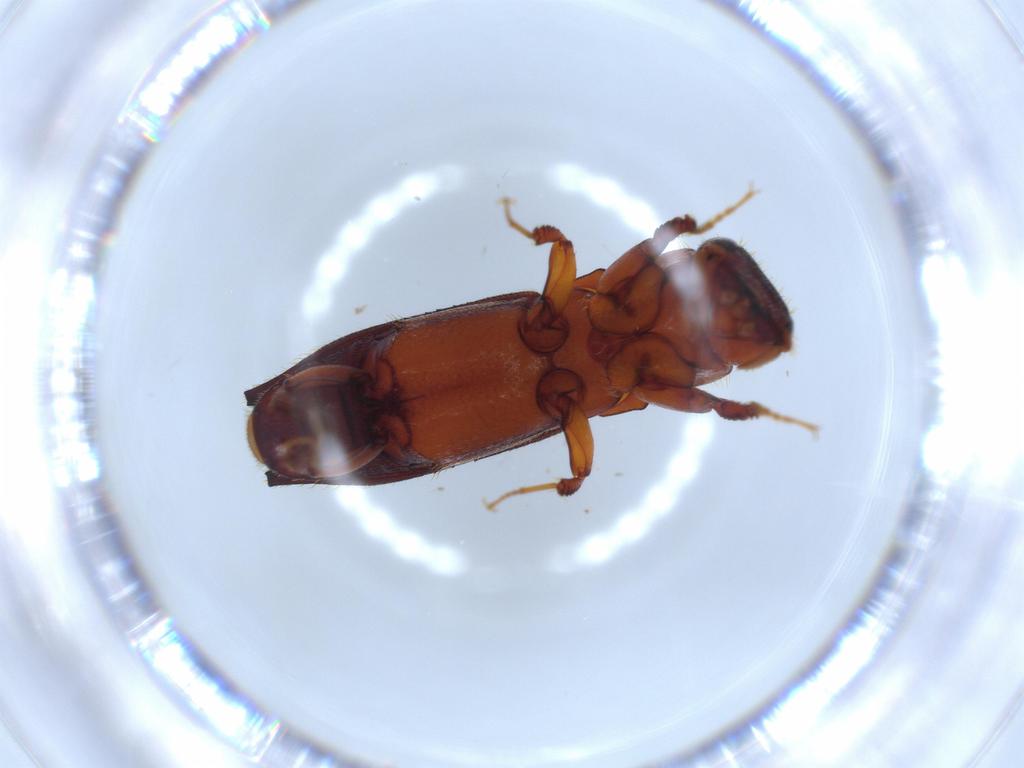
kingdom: Animalia
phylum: Arthropoda
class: Insecta
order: Coleoptera
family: Curculionidae
